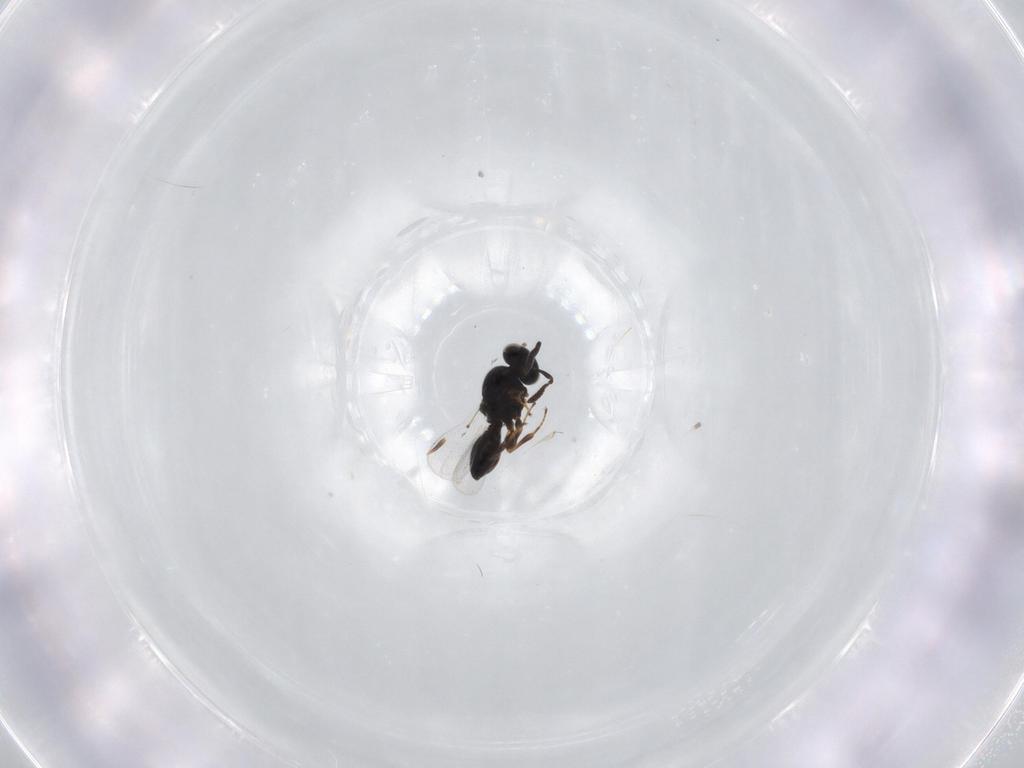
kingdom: Animalia
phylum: Arthropoda
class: Insecta
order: Hymenoptera
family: Platygastridae
